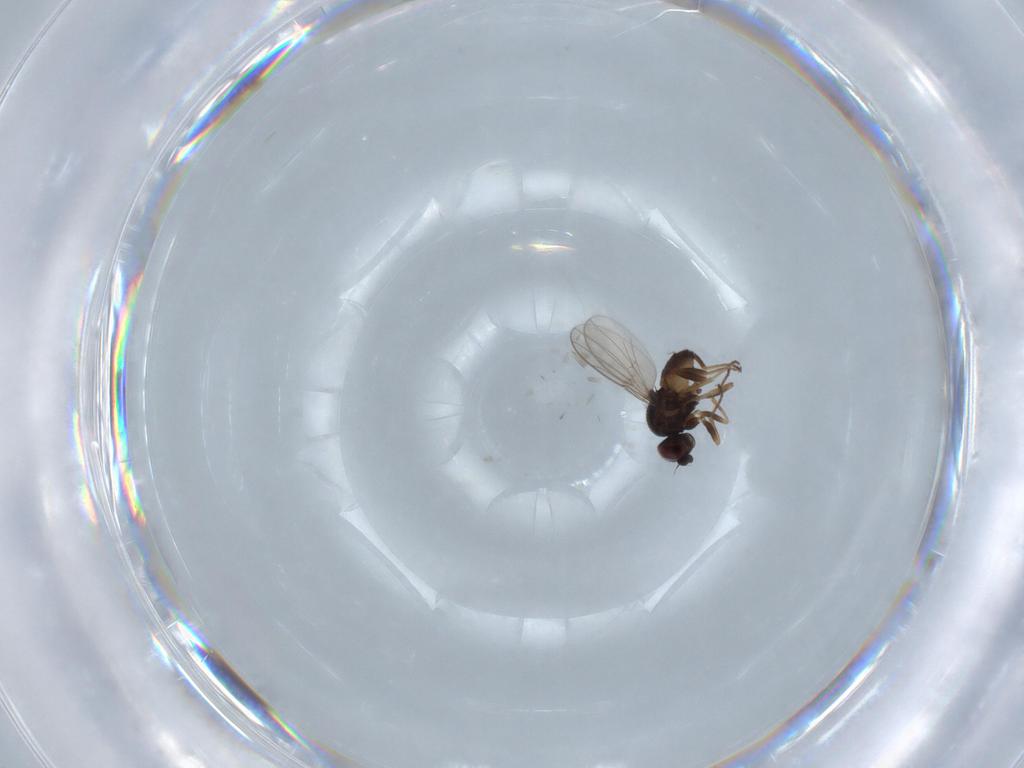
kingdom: Animalia
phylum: Arthropoda
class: Insecta
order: Diptera
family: Chloropidae
